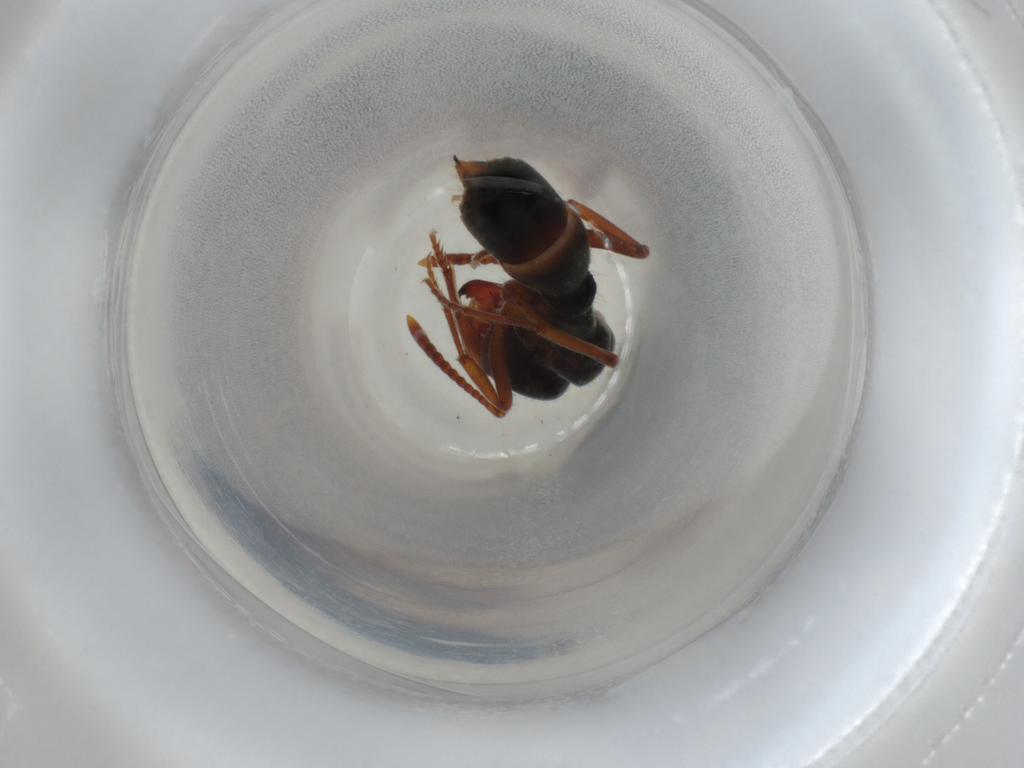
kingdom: Animalia
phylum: Arthropoda
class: Insecta
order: Hymenoptera
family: Formicidae
